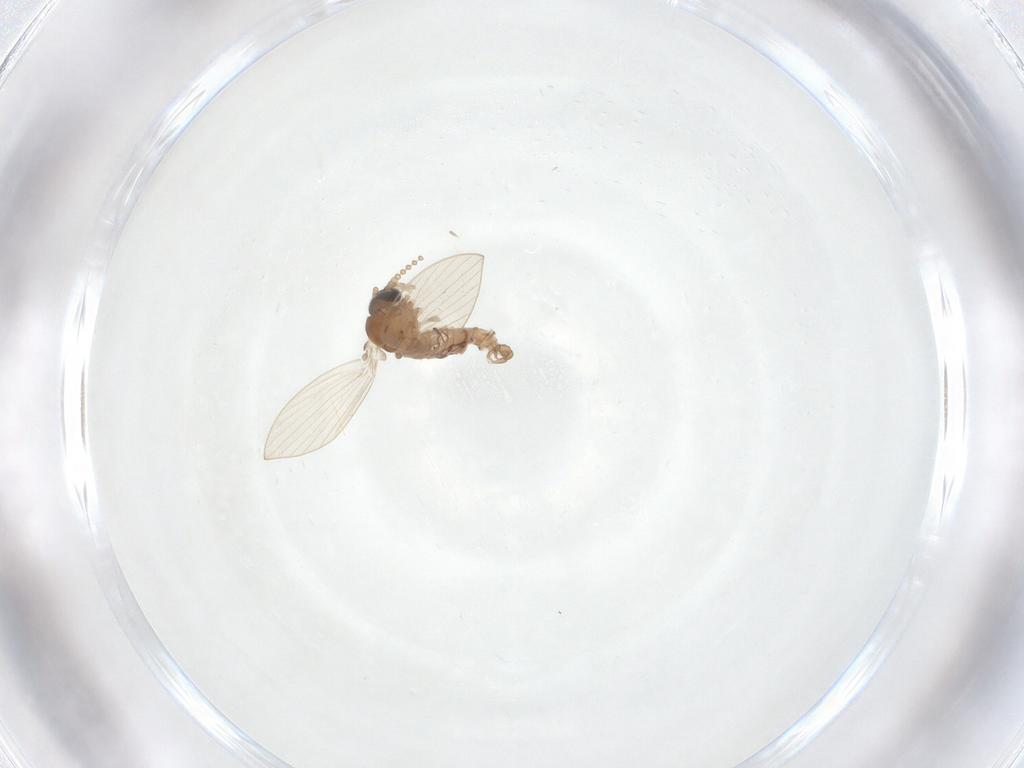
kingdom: Animalia
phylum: Arthropoda
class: Insecta
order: Diptera
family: Psychodidae
